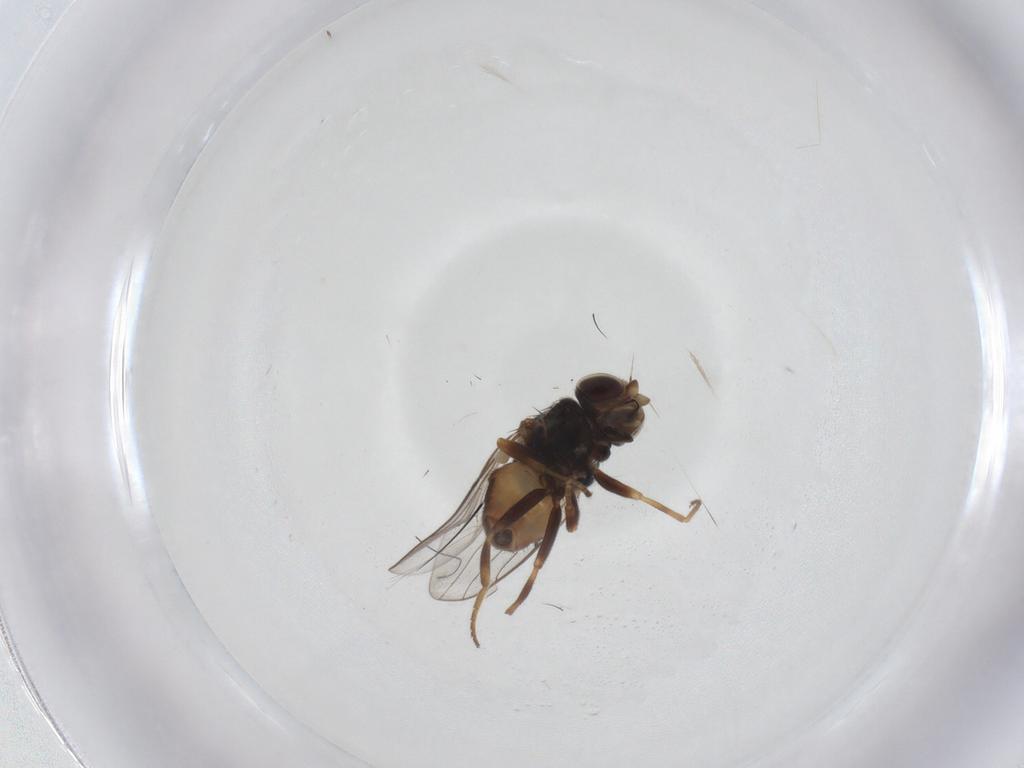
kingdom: Animalia
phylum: Arthropoda
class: Insecta
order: Diptera
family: Chloropidae
